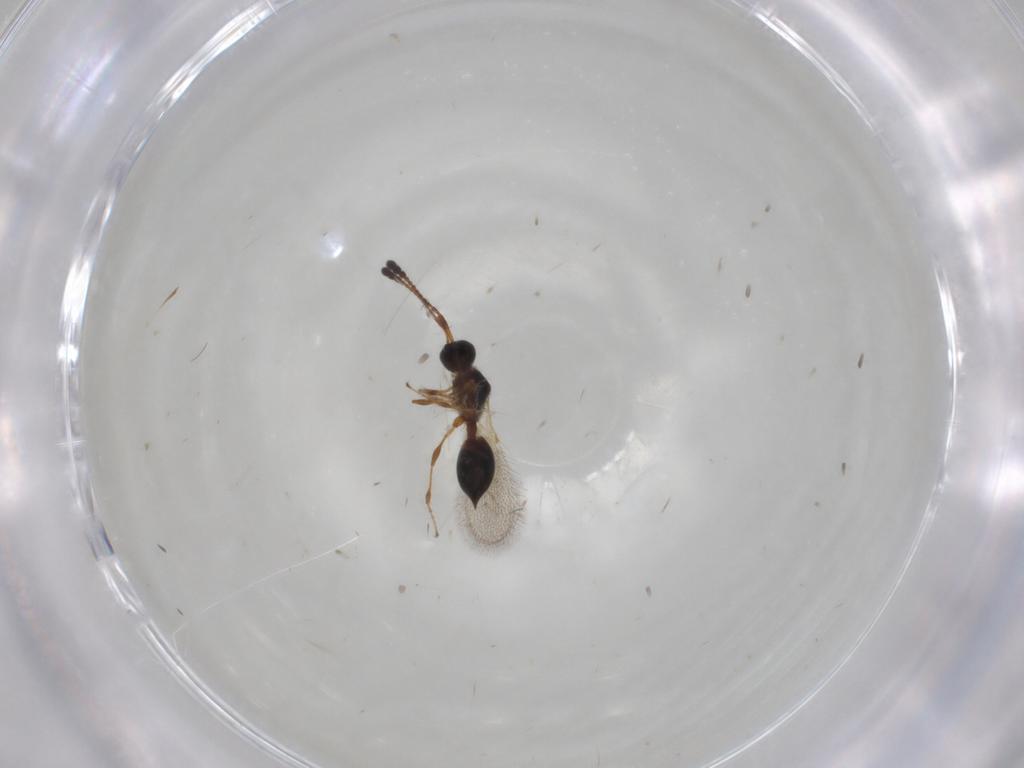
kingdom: Animalia
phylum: Arthropoda
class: Insecta
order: Hymenoptera
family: Diapriidae
